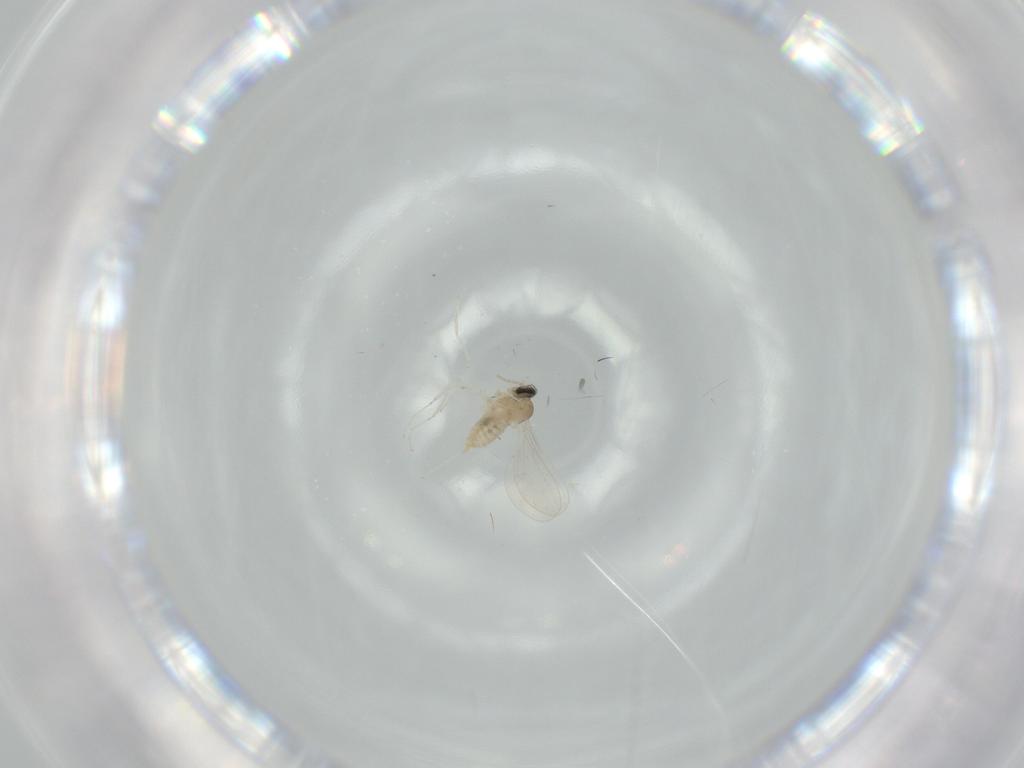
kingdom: Animalia
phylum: Arthropoda
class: Insecta
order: Diptera
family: Cecidomyiidae
